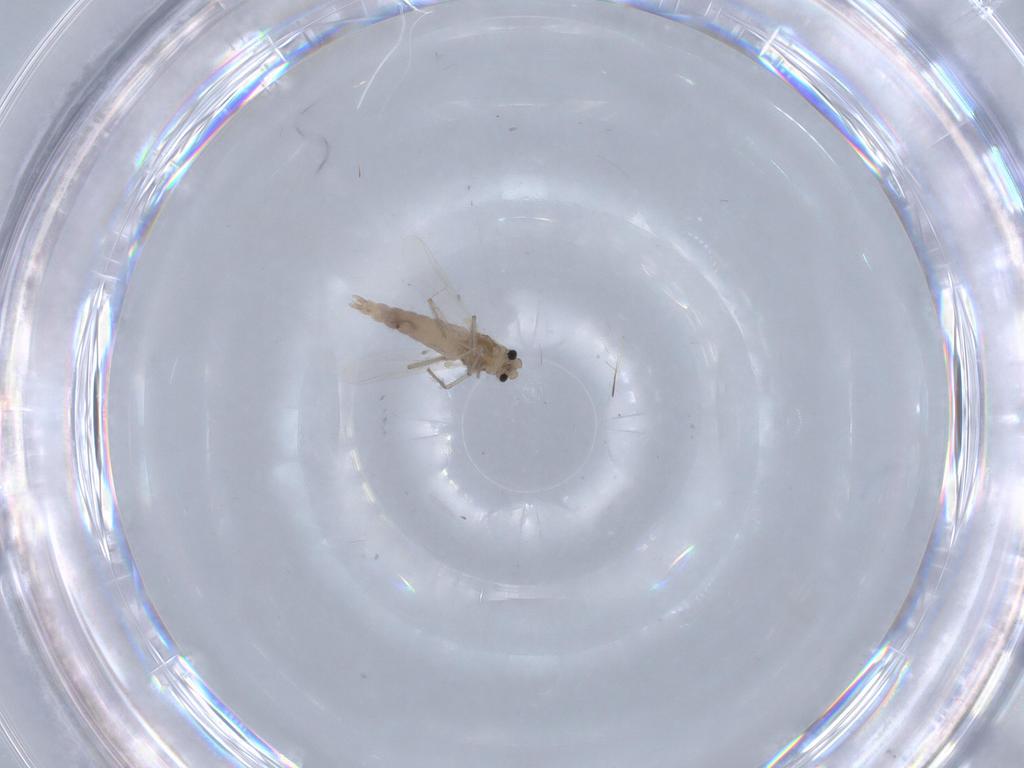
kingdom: Animalia
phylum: Arthropoda
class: Insecta
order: Diptera
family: Chironomidae
